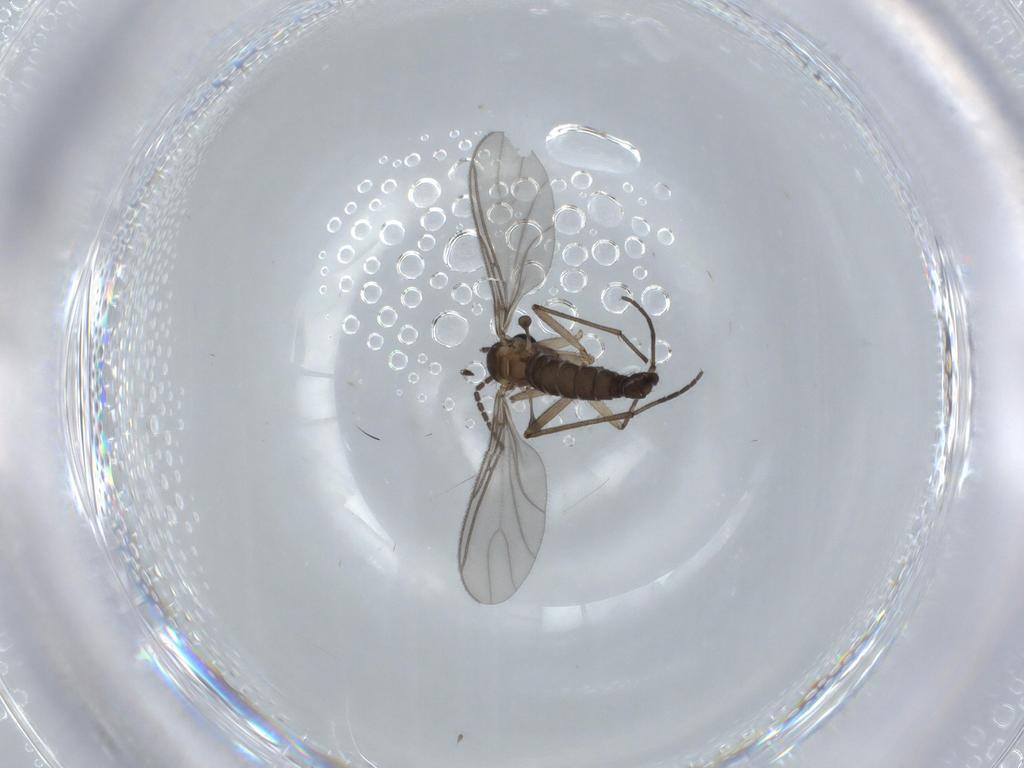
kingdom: Animalia
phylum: Arthropoda
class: Insecta
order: Diptera
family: Sciaridae
